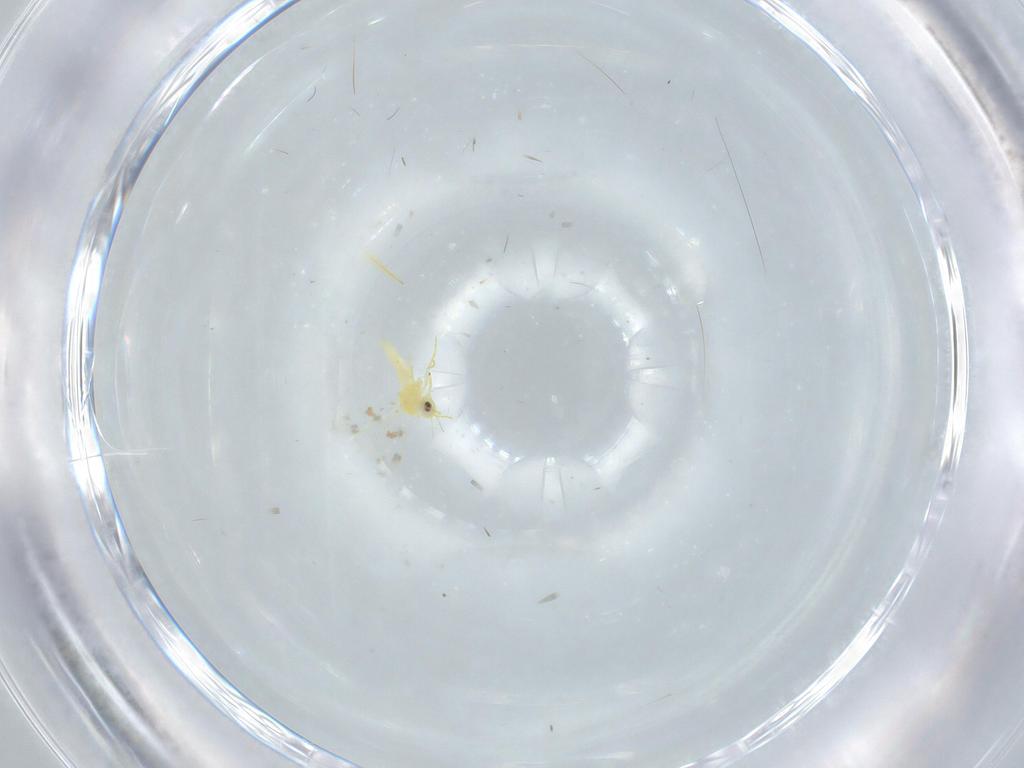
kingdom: Animalia
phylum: Arthropoda
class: Insecta
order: Hemiptera
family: Aleyrodidae
